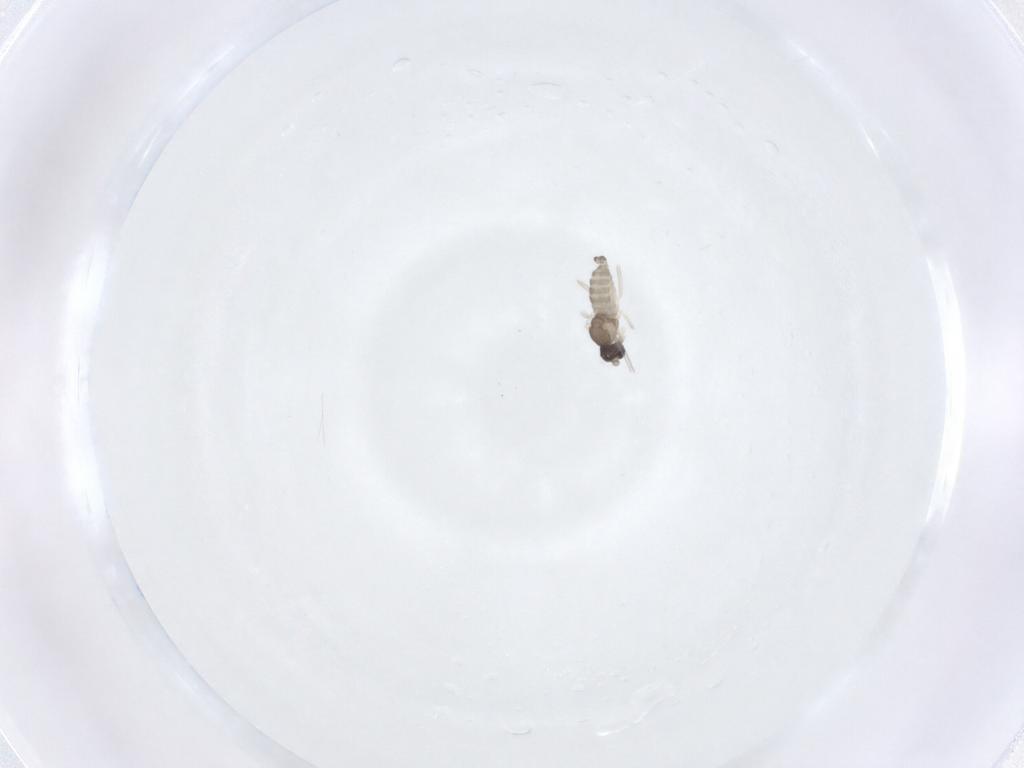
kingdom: Animalia
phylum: Arthropoda
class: Insecta
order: Diptera
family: Cecidomyiidae
